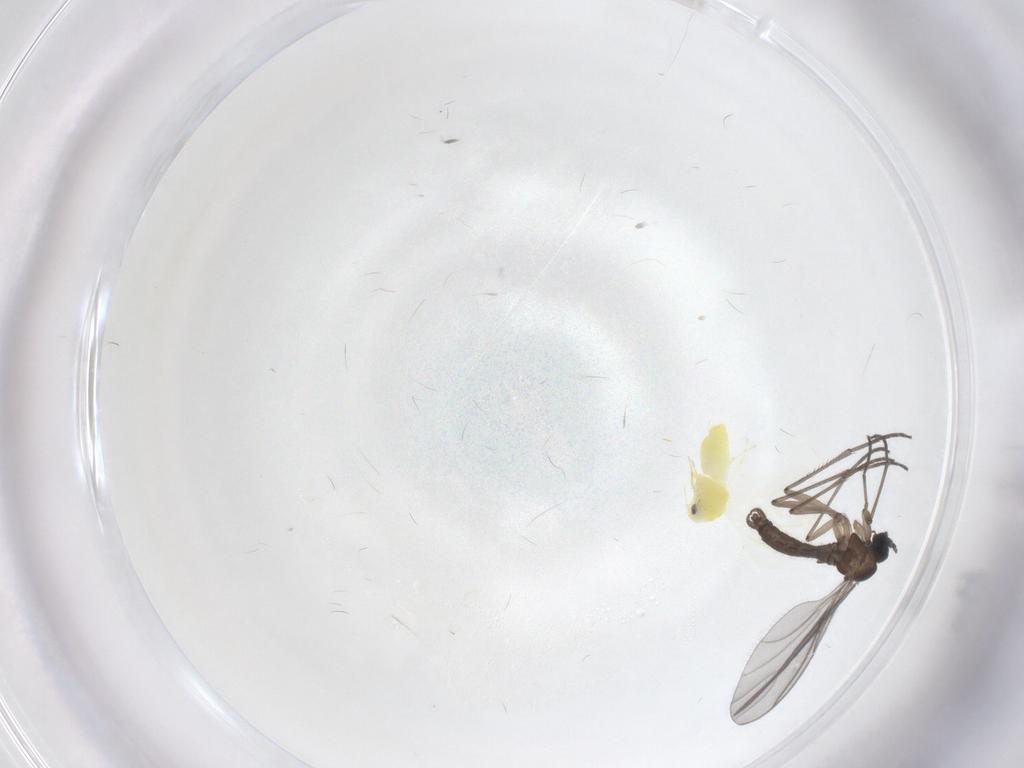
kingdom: Animalia
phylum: Arthropoda
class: Insecta
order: Hemiptera
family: Aleyrodidae
